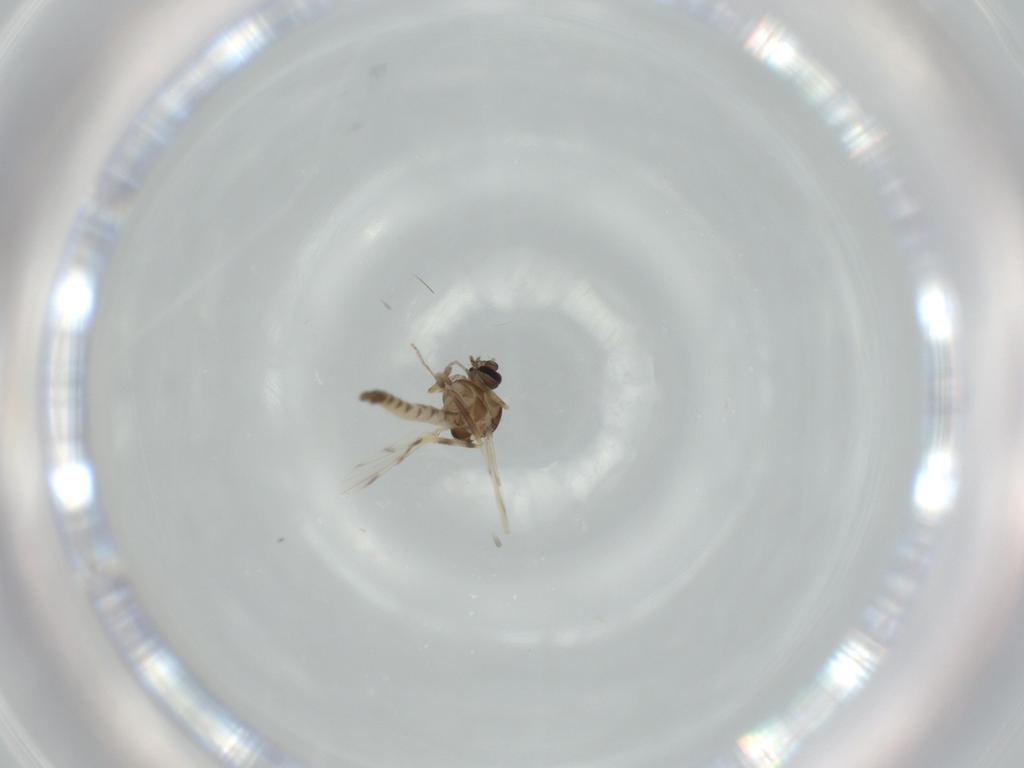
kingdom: Animalia
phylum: Arthropoda
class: Insecta
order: Diptera
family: Ceratopogonidae
